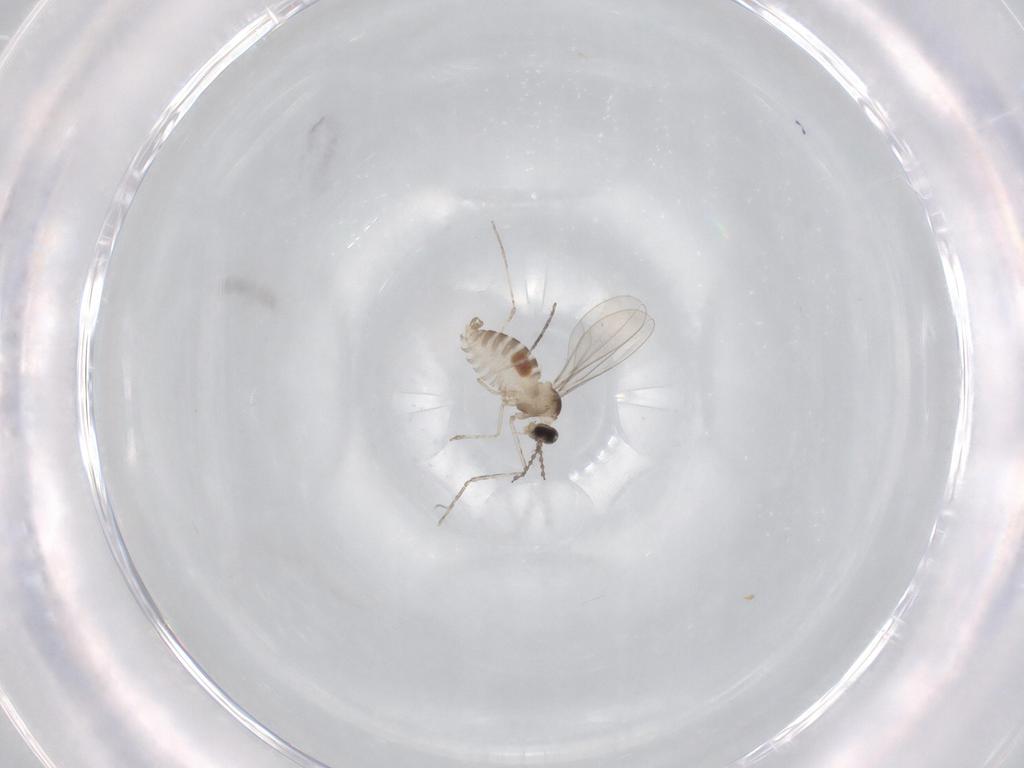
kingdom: Animalia
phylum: Arthropoda
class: Insecta
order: Diptera
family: Cecidomyiidae
